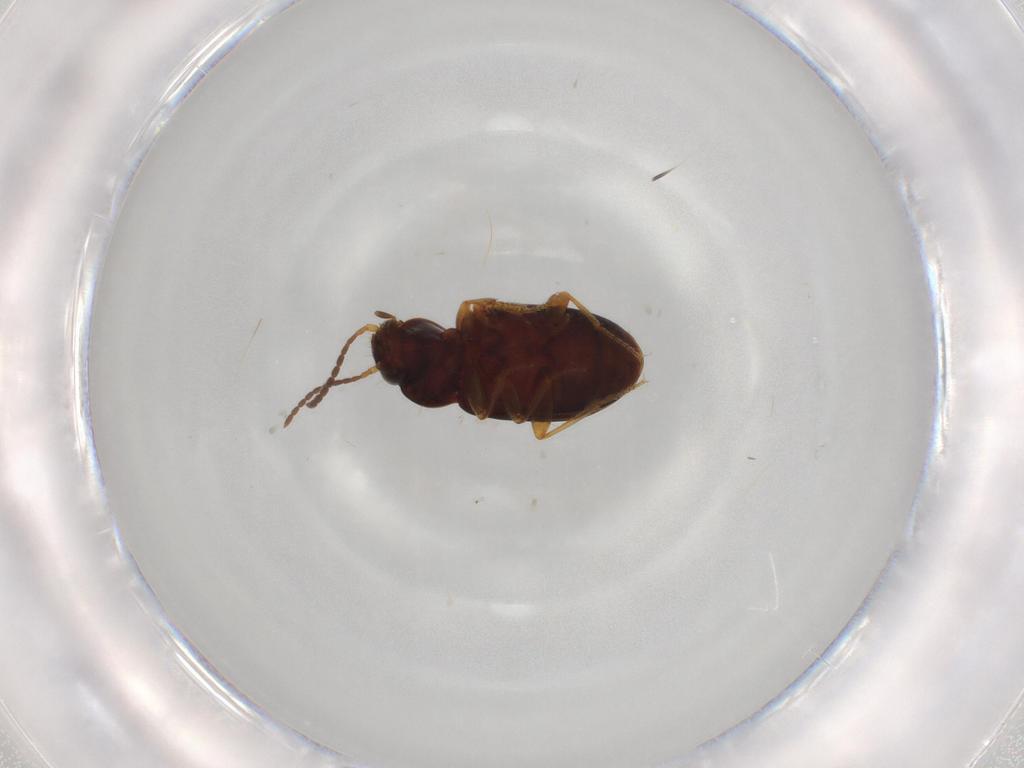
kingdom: Animalia
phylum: Arthropoda
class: Insecta
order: Coleoptera
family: Carabidae
